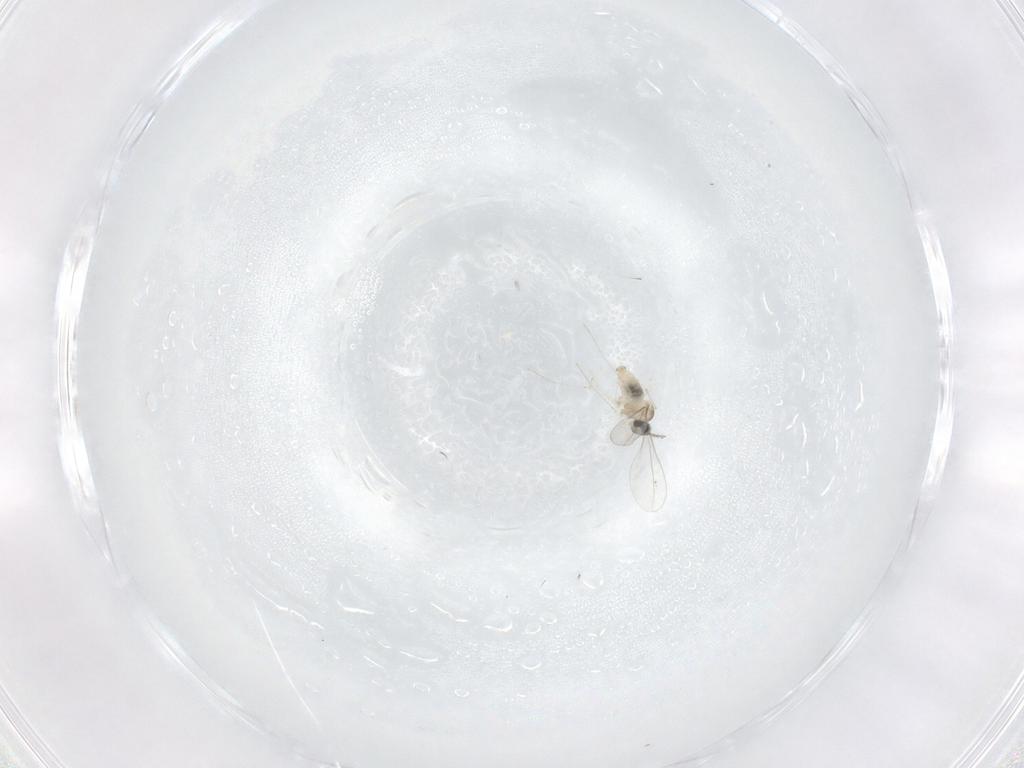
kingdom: Animalia
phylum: Arthropoda
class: Insecta
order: Diptera
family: Cecidomyiidae
